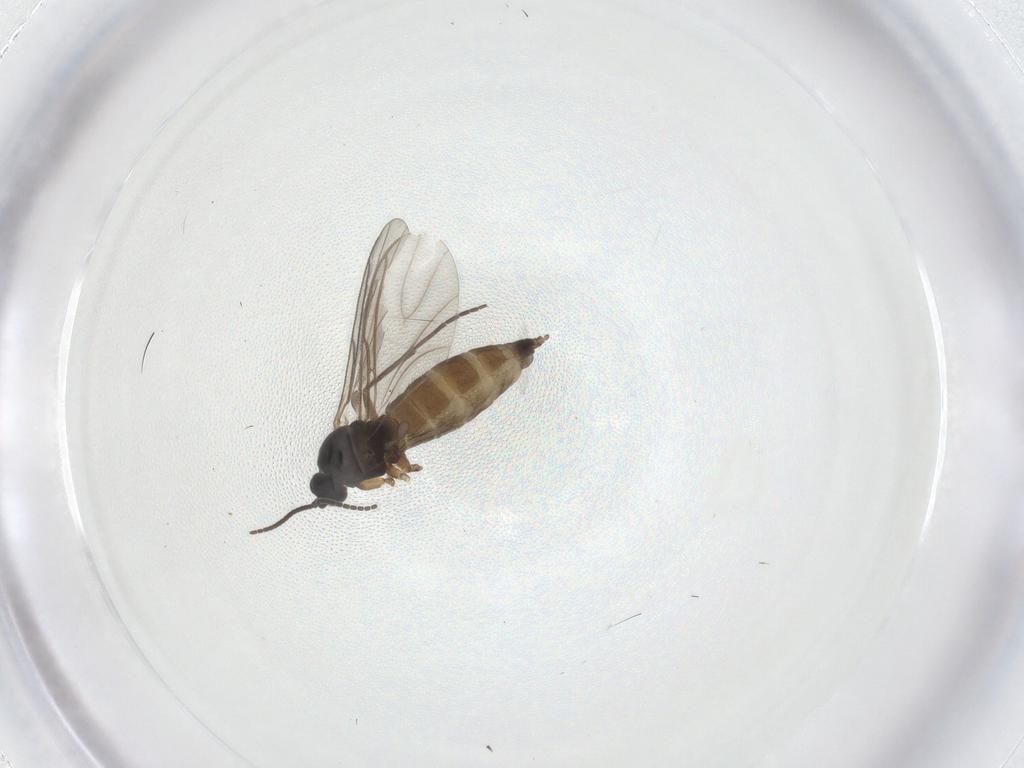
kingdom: Animalia
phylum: Arthropoda
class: Insecta
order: Diptera
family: Sciaridae
